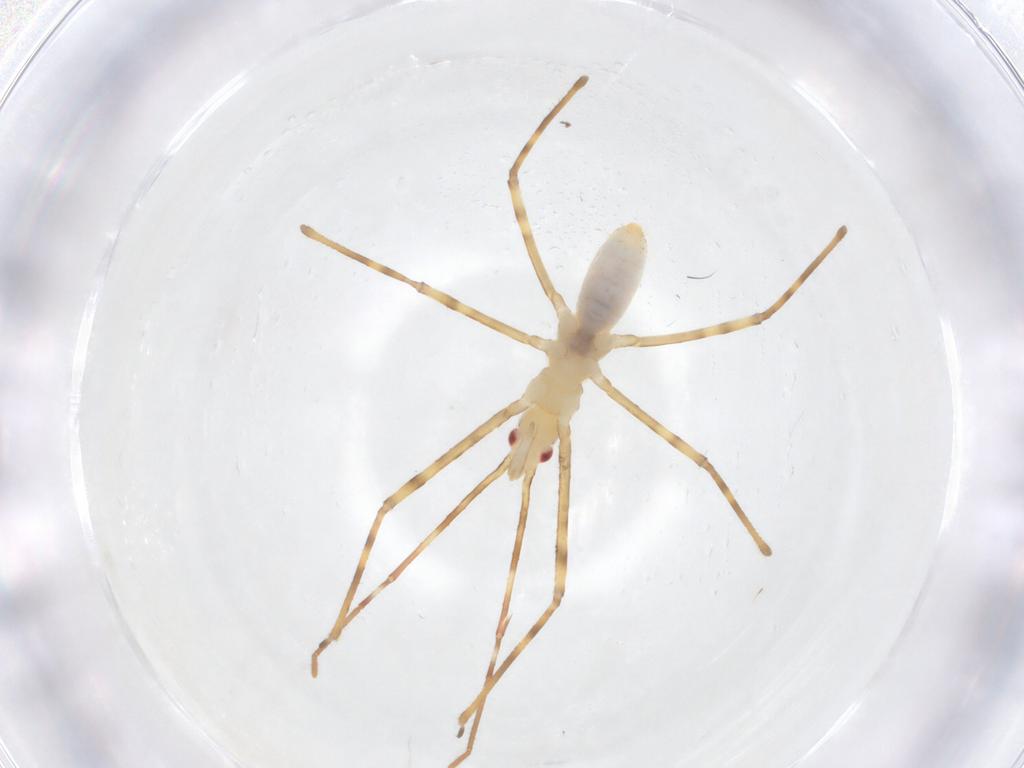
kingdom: Animalia
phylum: Arthropoda
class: Insecta
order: Hemiptera
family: Reduviidae
